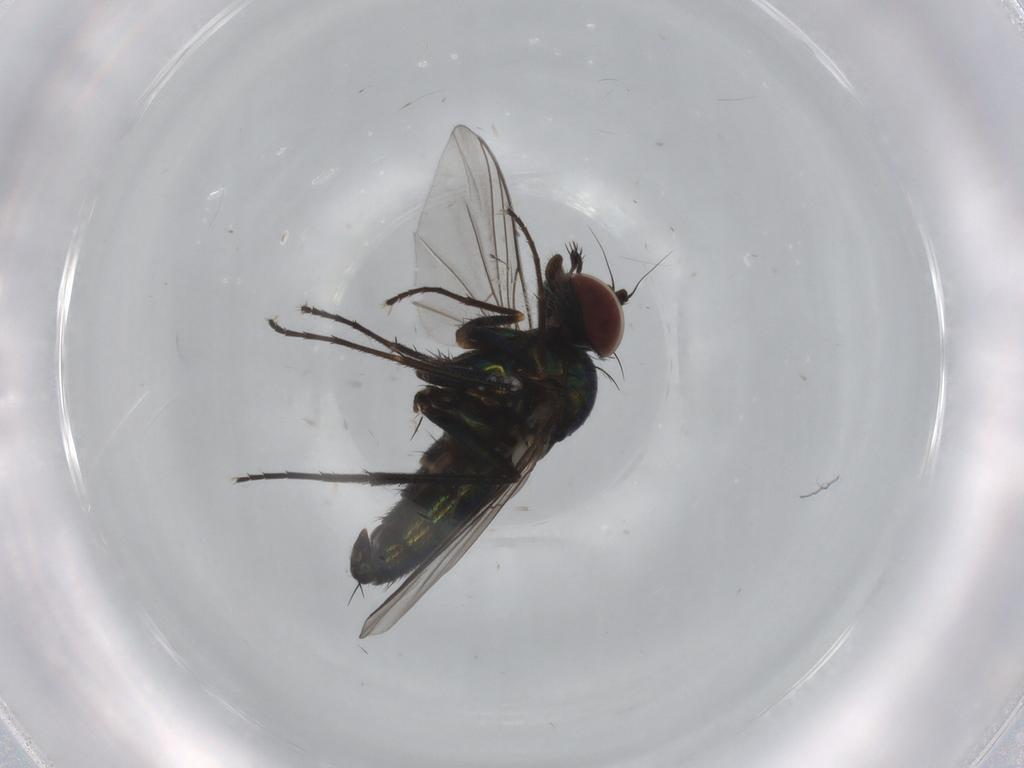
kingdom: Animalia
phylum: Arthropoda
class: Insecta
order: Diptera
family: Dolichopodidae
